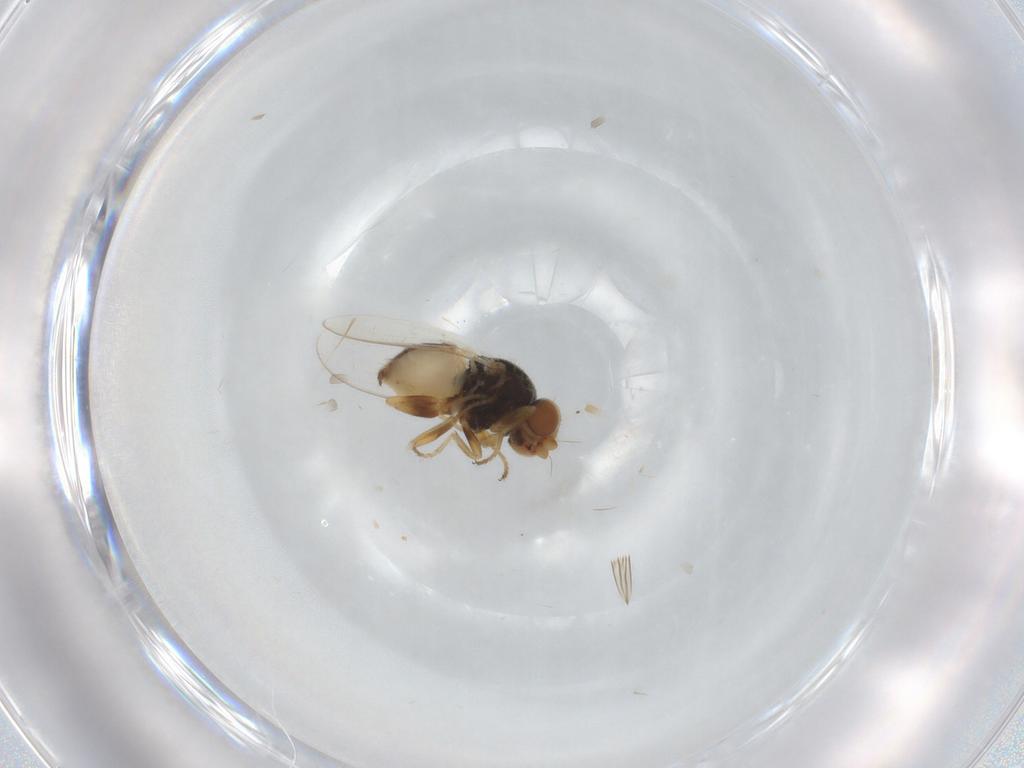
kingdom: Animalia
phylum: Arthropoda
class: Insecta
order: Diptera
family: Chloropidae
